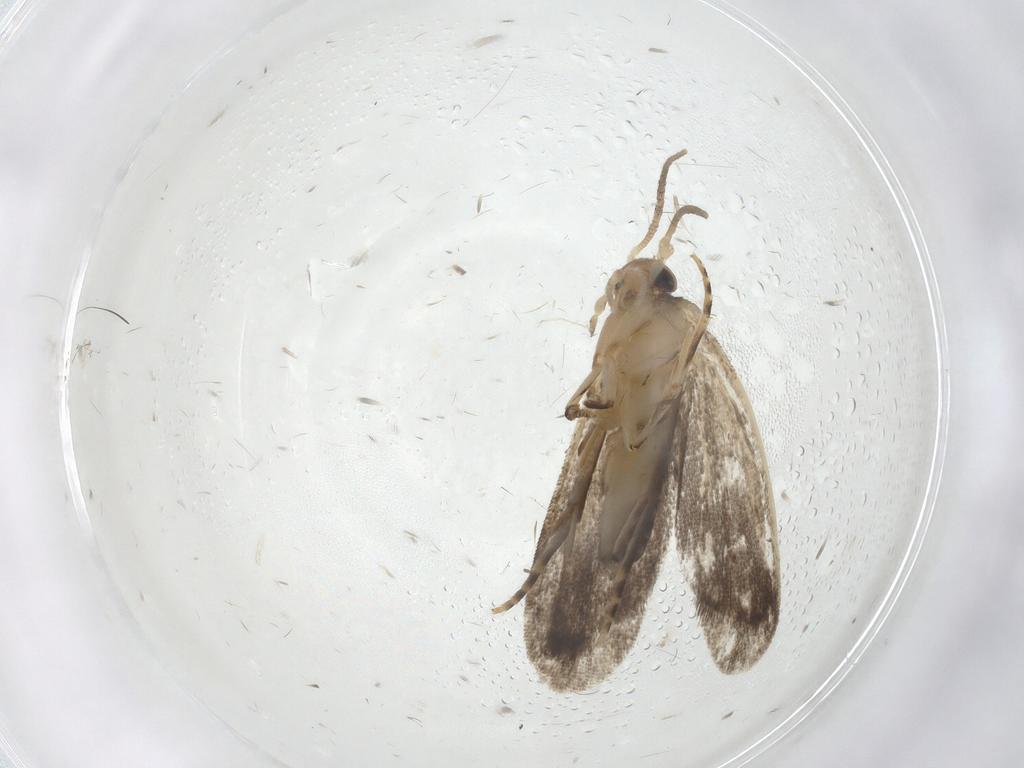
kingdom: Animalia
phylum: Arthropoda
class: Insecta
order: Lepidoptera
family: Dryadaulidae
